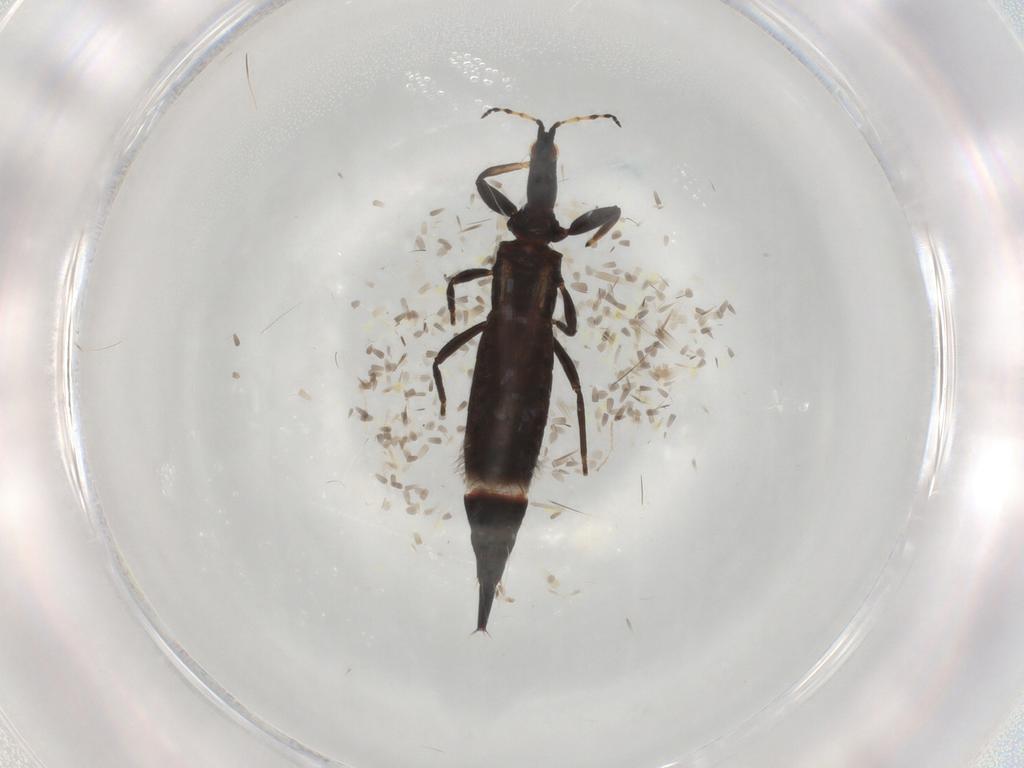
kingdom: Animalia
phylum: Arthropoda
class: Insecta
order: Thysanoptera
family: Phlaeothripidae
